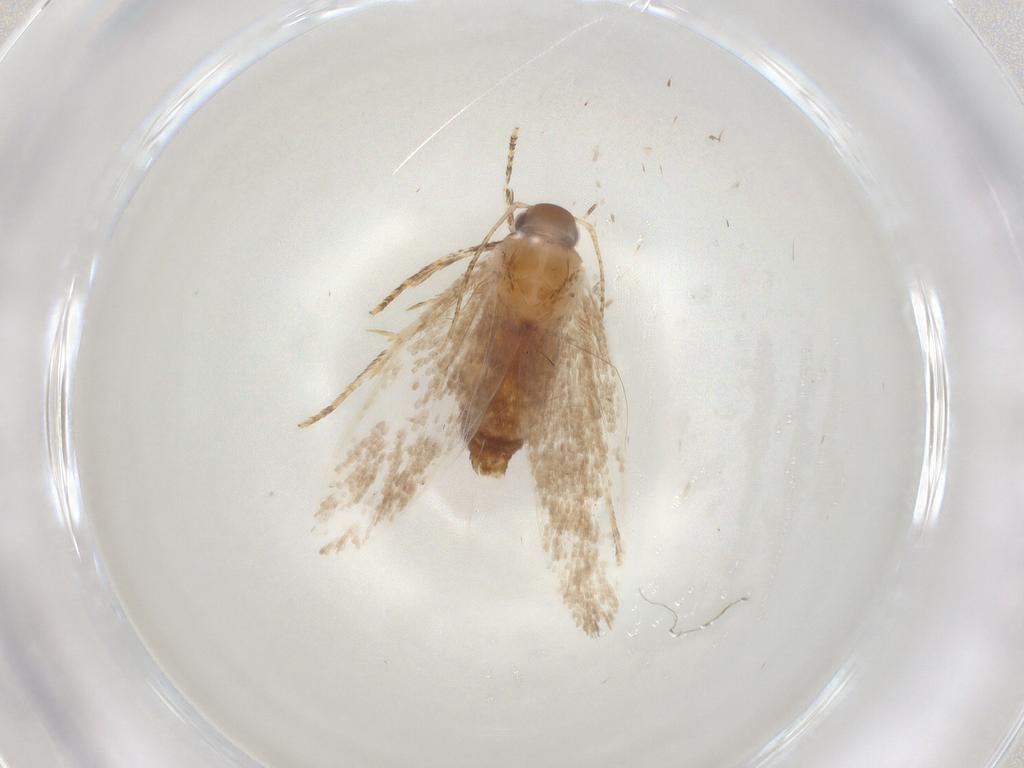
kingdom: Animalia
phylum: Arthropoda
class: Insecta
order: Lepidoptera
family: Oecophoridae
